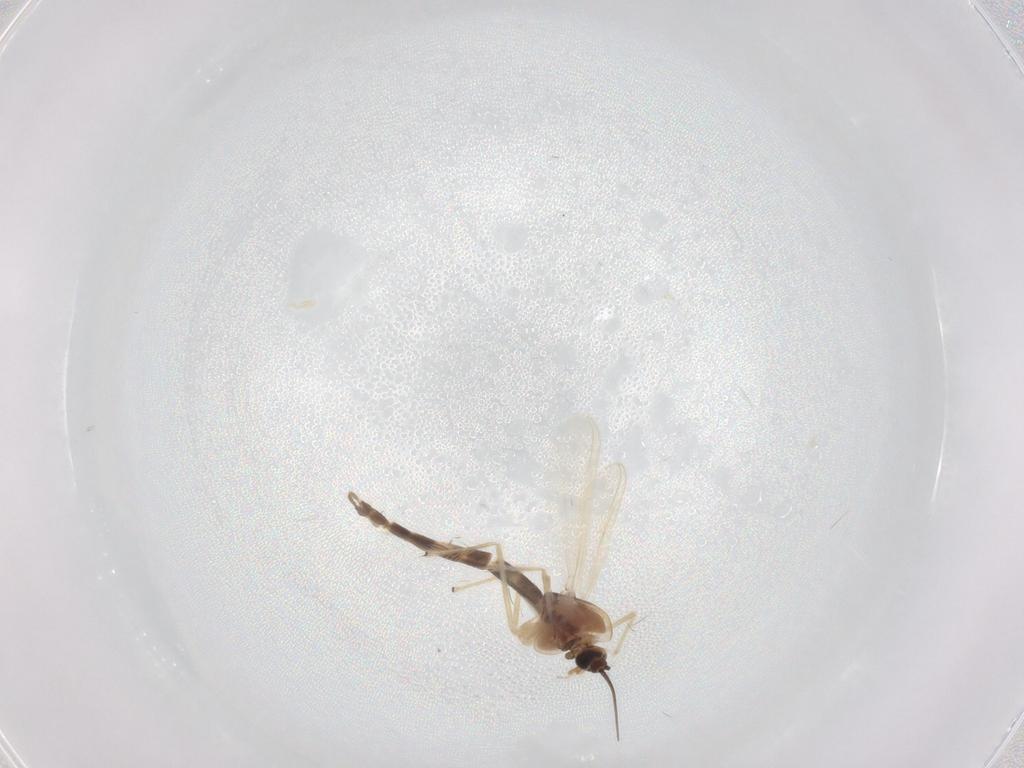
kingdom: Animalia
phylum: Arthropoda
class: Insecta
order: Diptera
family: Chironomidae
